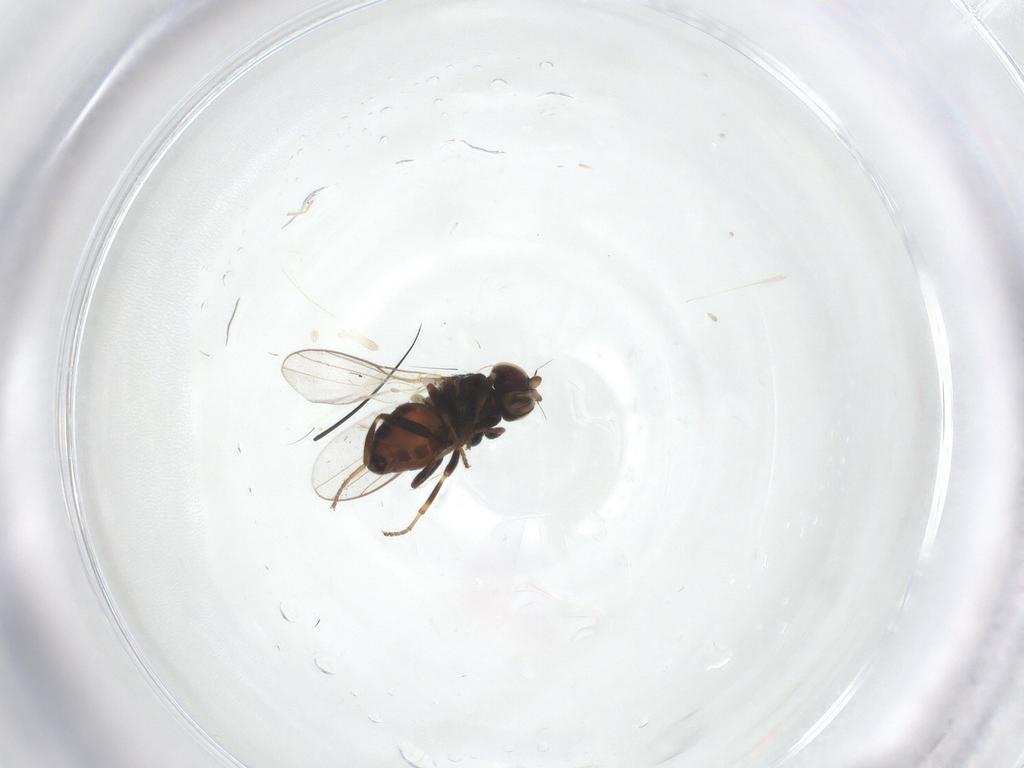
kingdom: Animalia
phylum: Arthropoda
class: Insecta
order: Diptera
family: Chloropidae
